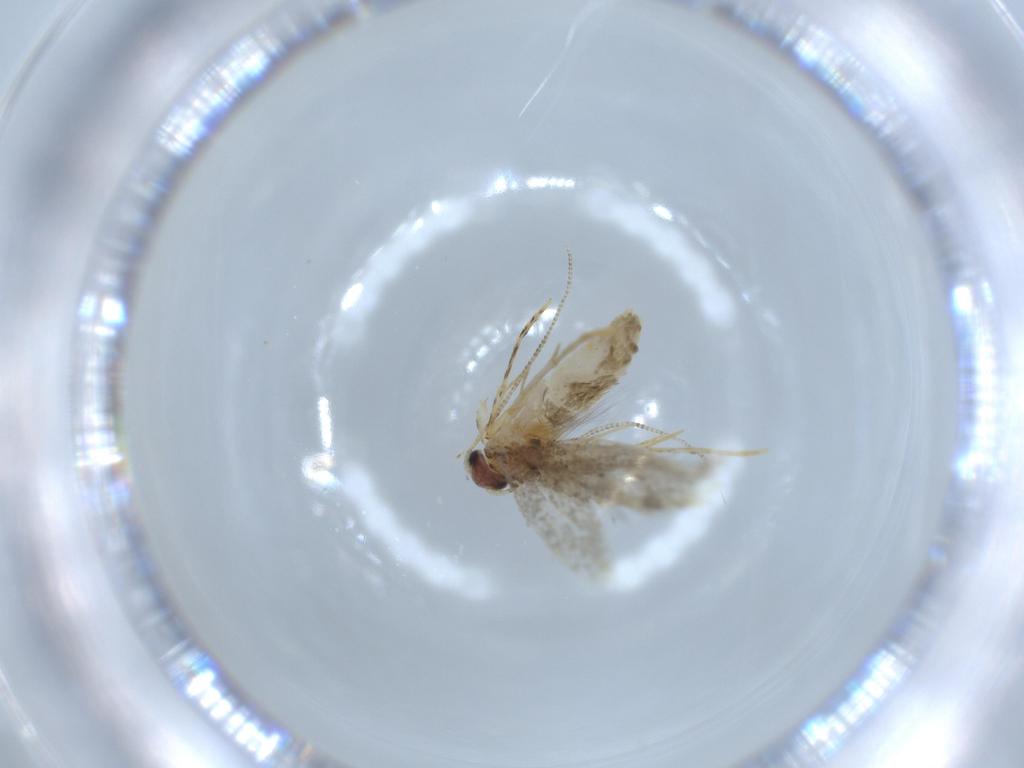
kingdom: Animalia
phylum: Arthropoda
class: Insecta
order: Lepidoptera
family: Tineidae
